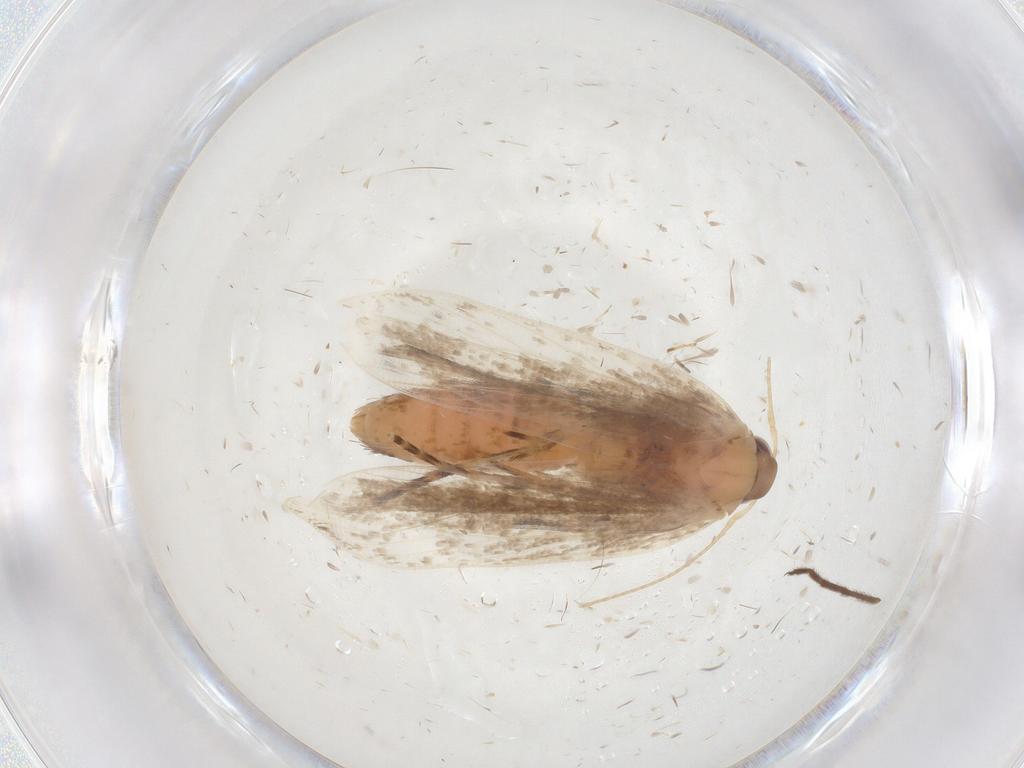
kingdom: Animalia
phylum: Arthropoda
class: Insecta
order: Lepidoptera
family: Gelechiidae
